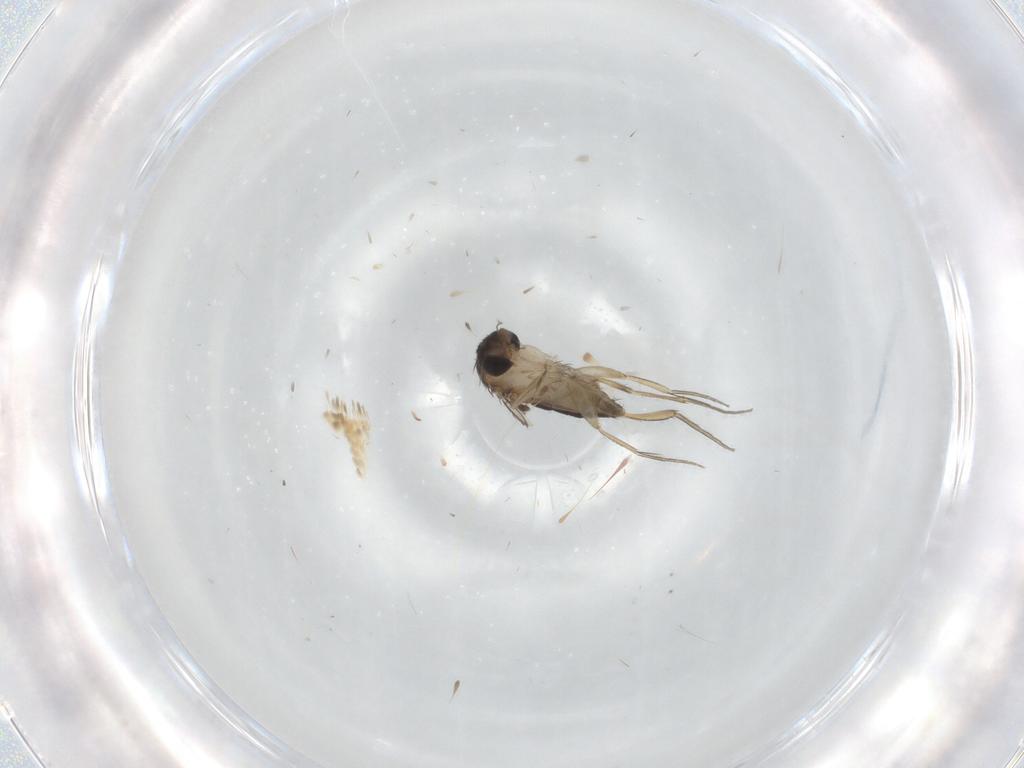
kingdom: Animalia
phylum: Arthropoda
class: Insecta
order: Diptera
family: Phoridae
